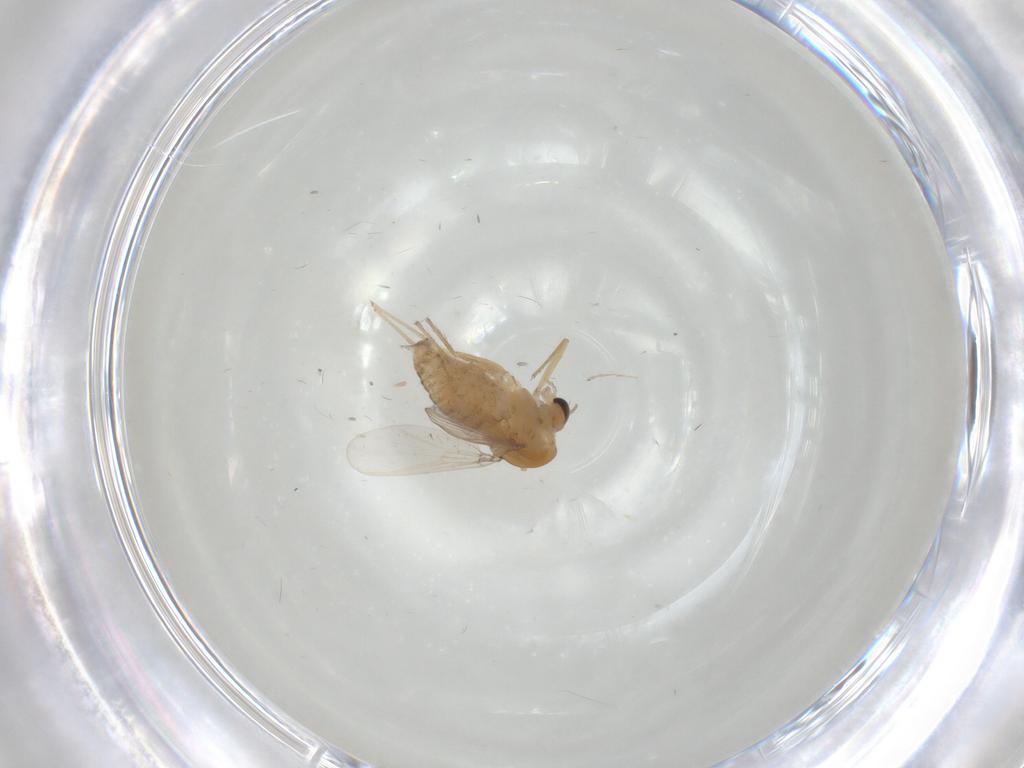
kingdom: Animalia
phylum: Arthropoda
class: Insecta
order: Diptera
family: Chironomidae
